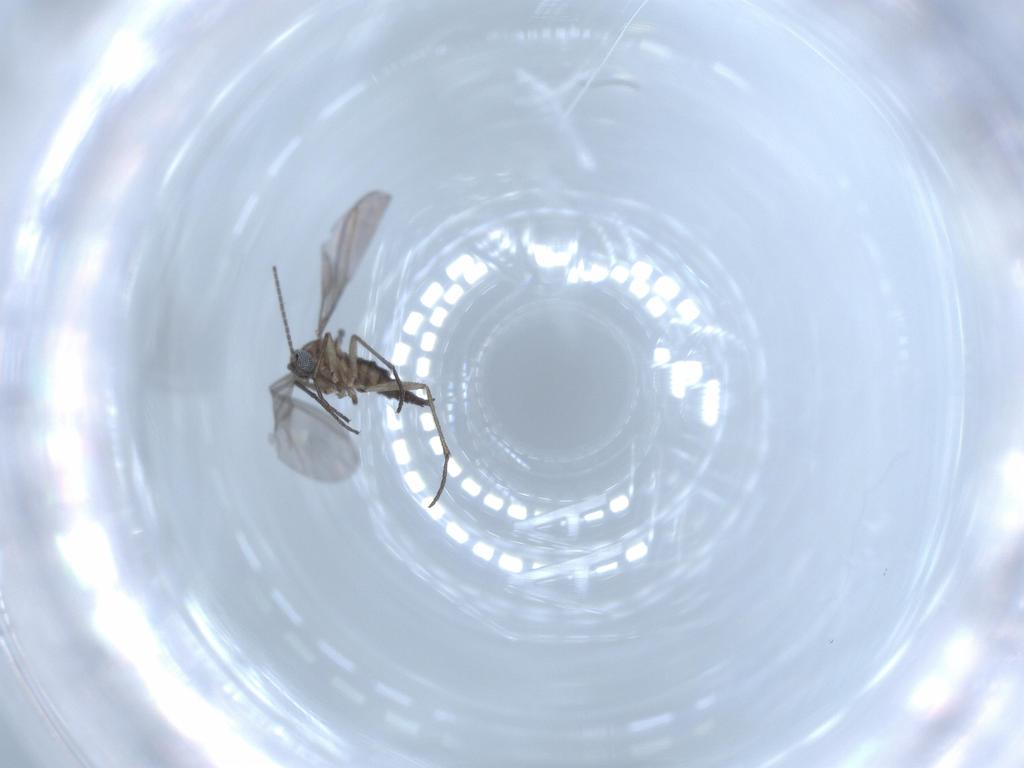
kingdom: Animalia
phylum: Arthropoda
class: Insecta
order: Diptera
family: Sciaridae
